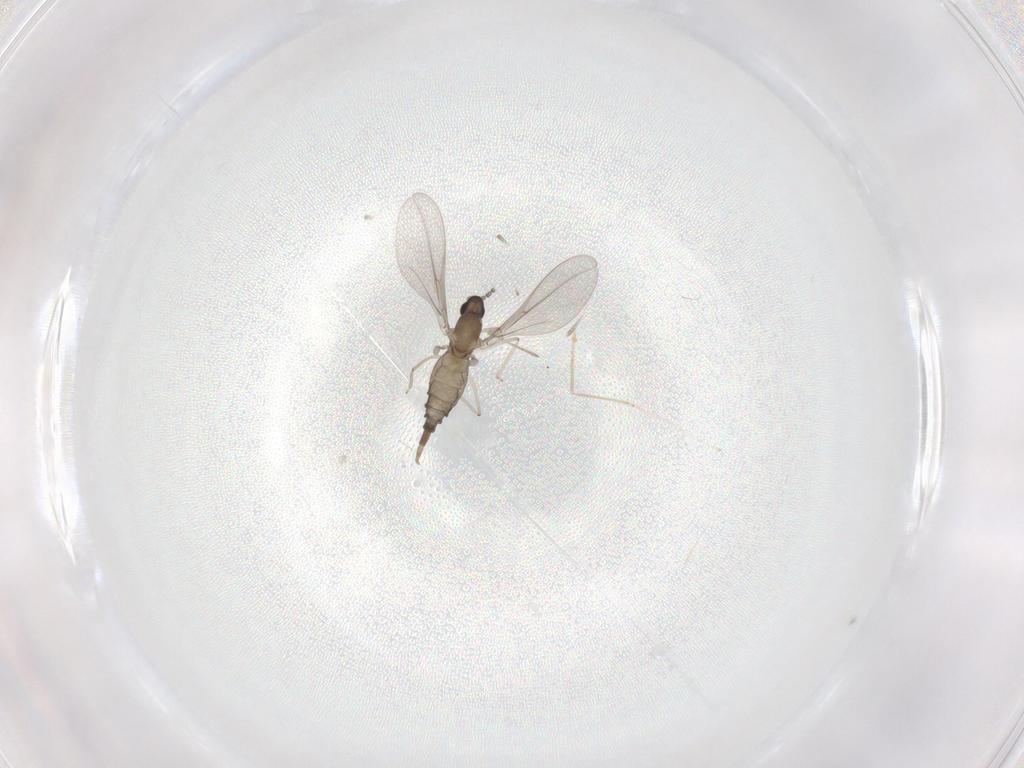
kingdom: Animalia
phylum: Arthropoda
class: Insecta
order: Diptera
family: Cecidomyiidae
